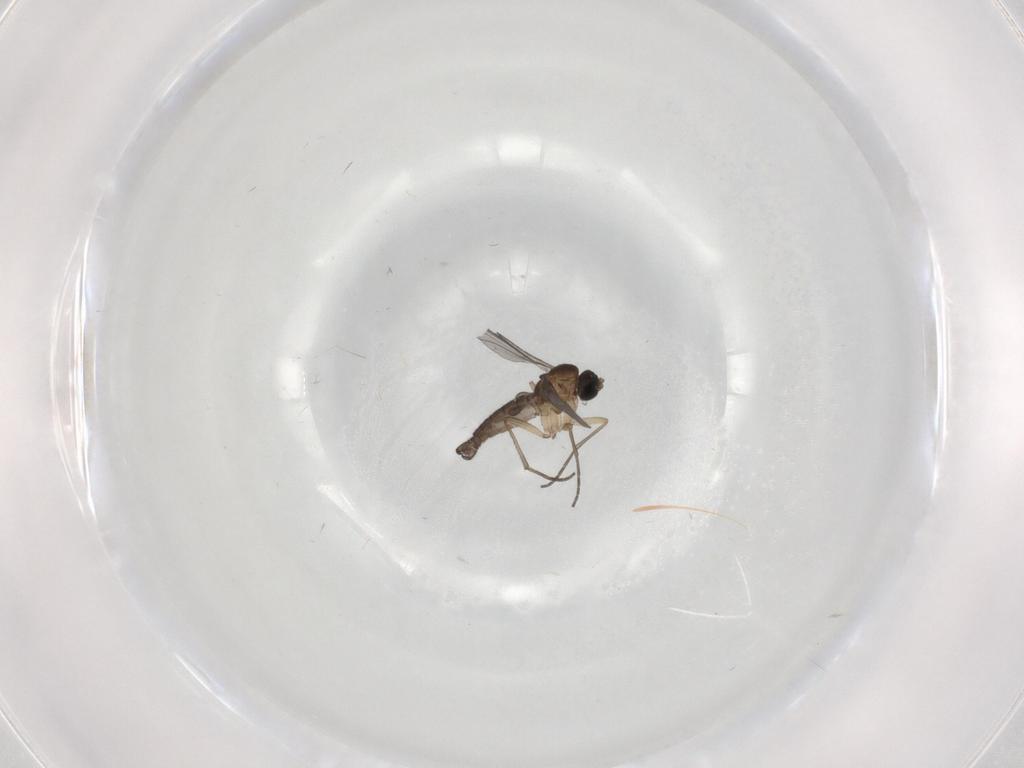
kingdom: Animalia
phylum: Arthropoda
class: Insecta
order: Diptera
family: Sciaridae
